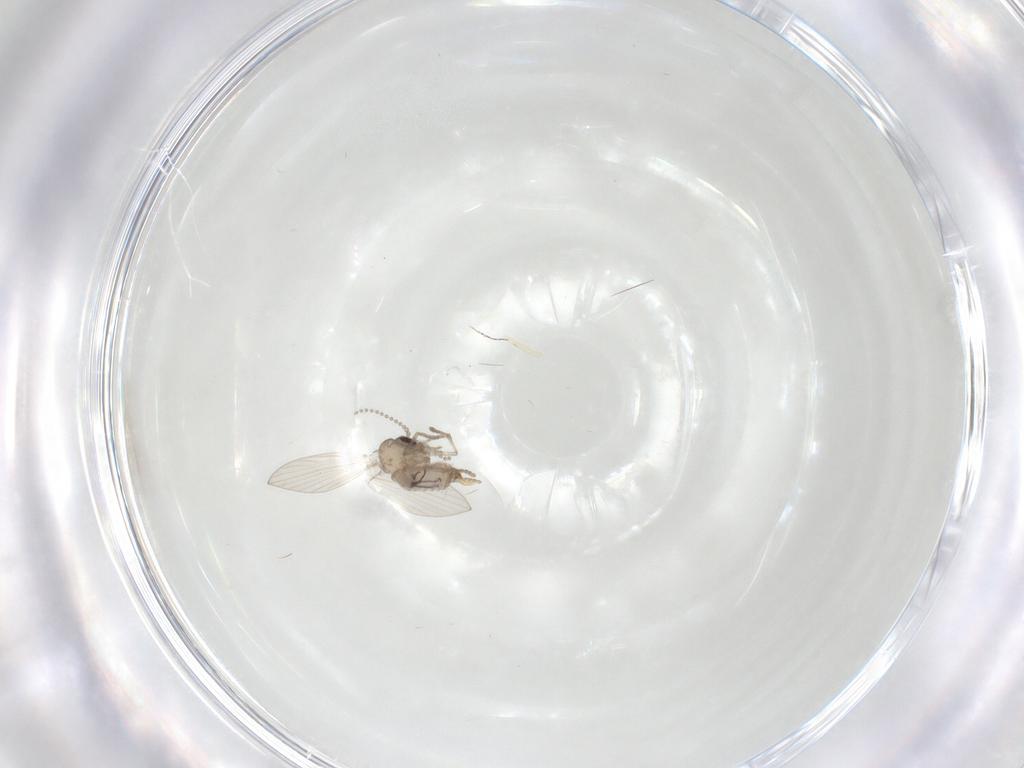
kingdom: Animalia
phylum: Arthropoda
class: Insecta
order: Diptera
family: Psychodidae
